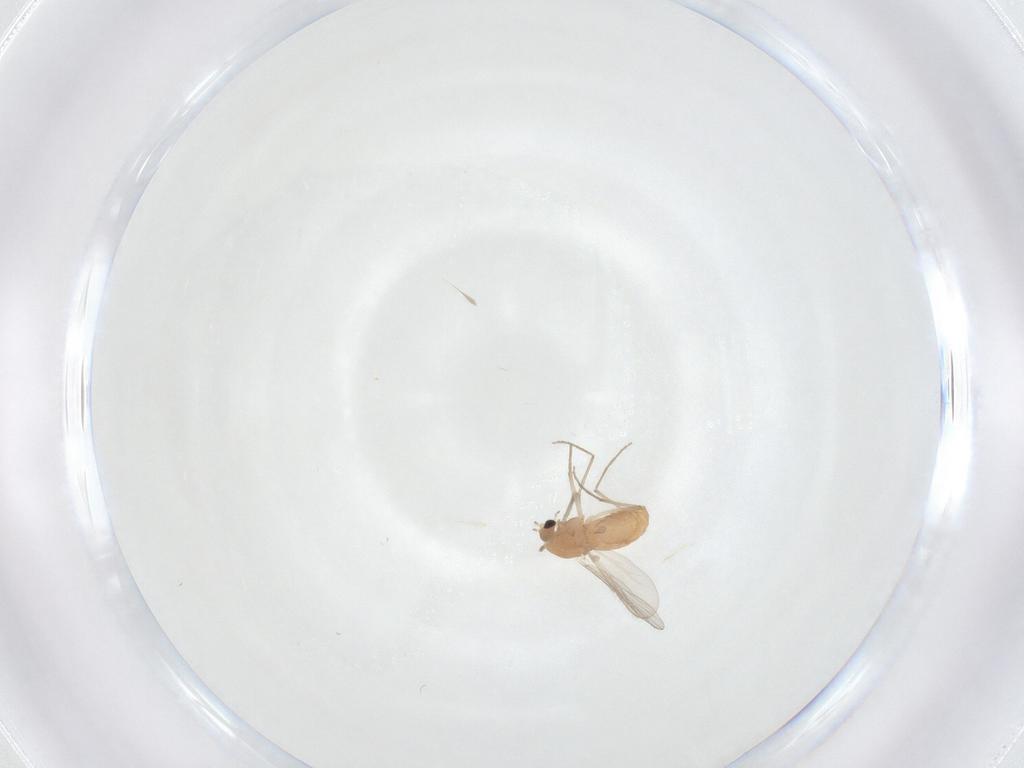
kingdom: Animalia
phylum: Arthropoda
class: Insecta
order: Diptera
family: Chironomidae
